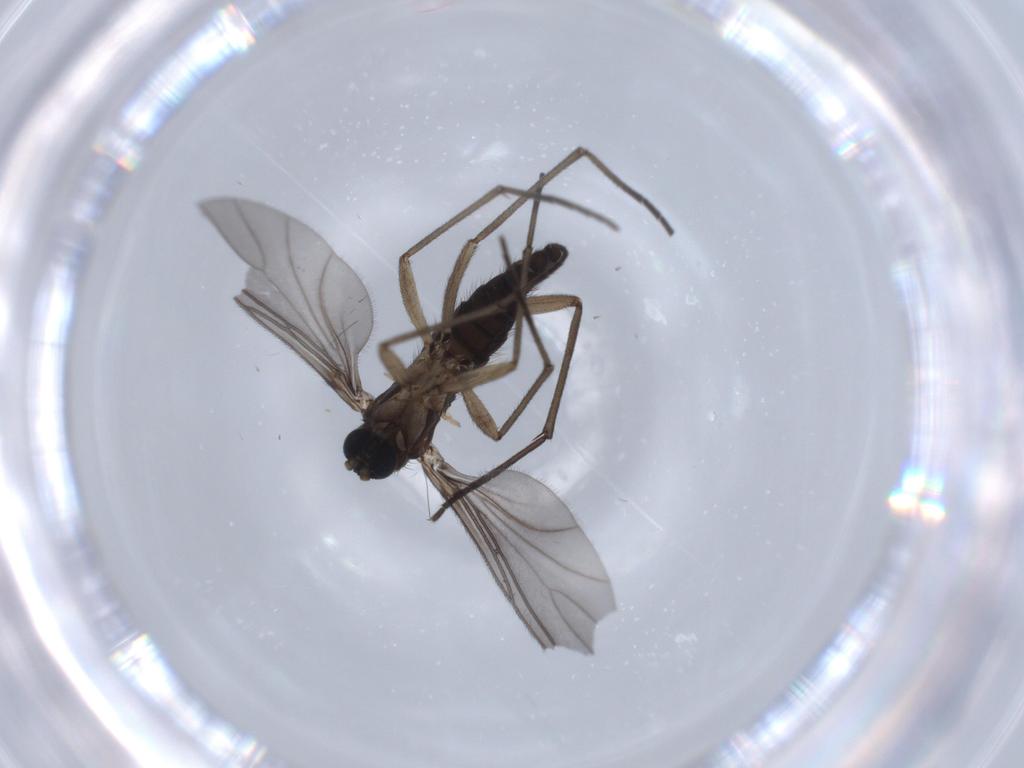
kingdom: Animalia
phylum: Arthropoda
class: Insecta
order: Diptera
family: Sciaridae
